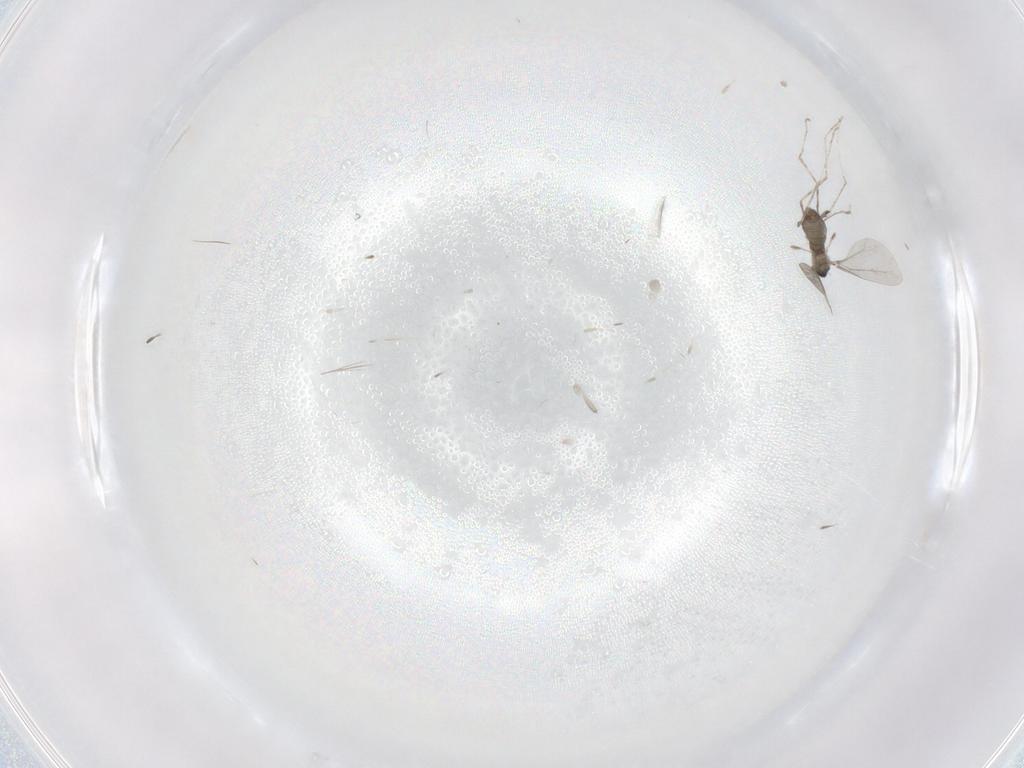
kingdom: Animalia
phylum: Arthropoda
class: Insecta
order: Diptera
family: Cecidomyiidae
